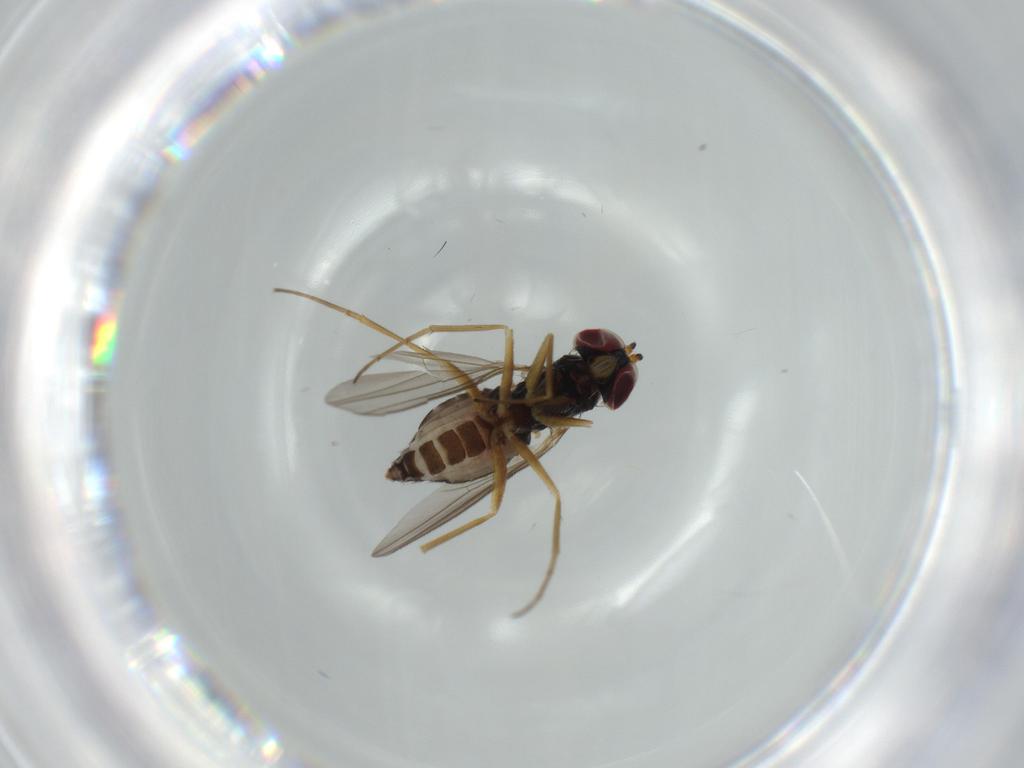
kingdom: Animalia
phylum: Arthropoda
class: Insecta
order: Diptera
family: Dolichopodidae
